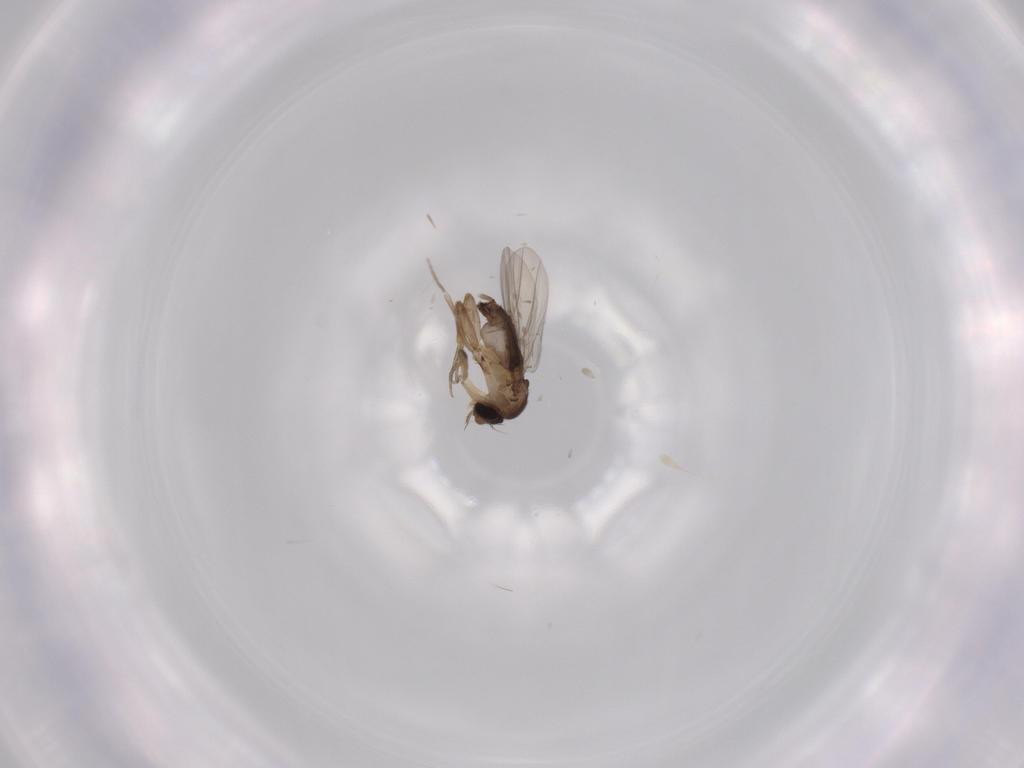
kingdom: Animalia
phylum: Arthropoda
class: Insecta
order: Diptera
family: Phoridae
